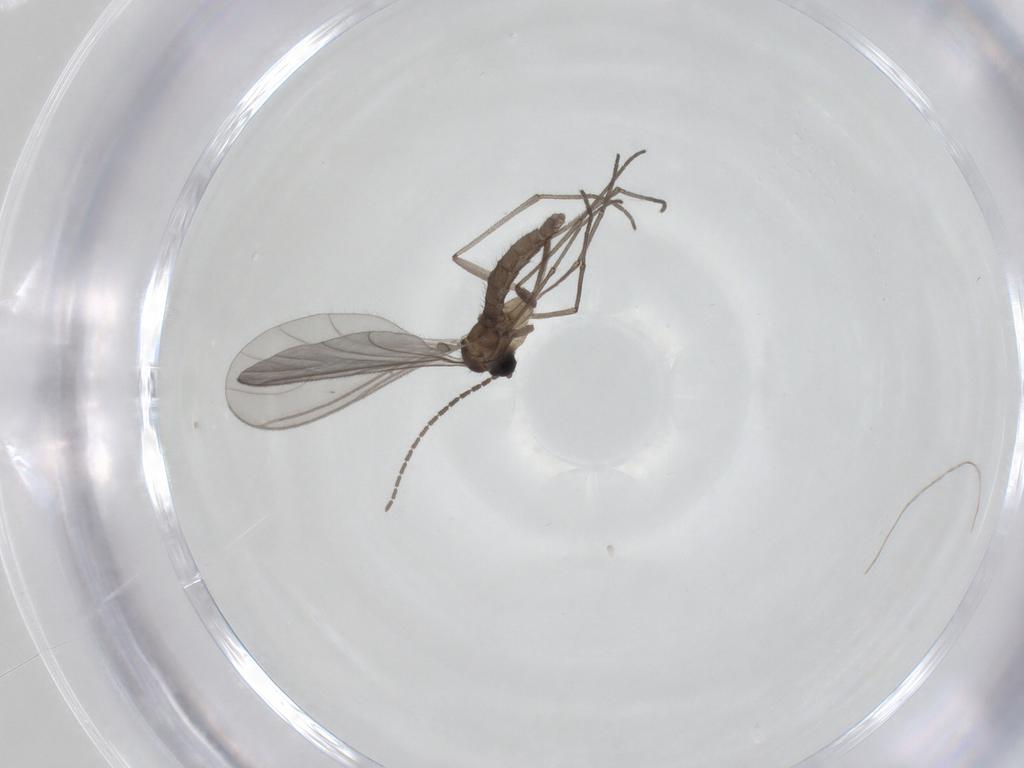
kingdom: Animalia
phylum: Arthropoda
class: Insecta
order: Diptera
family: Sciaridae
